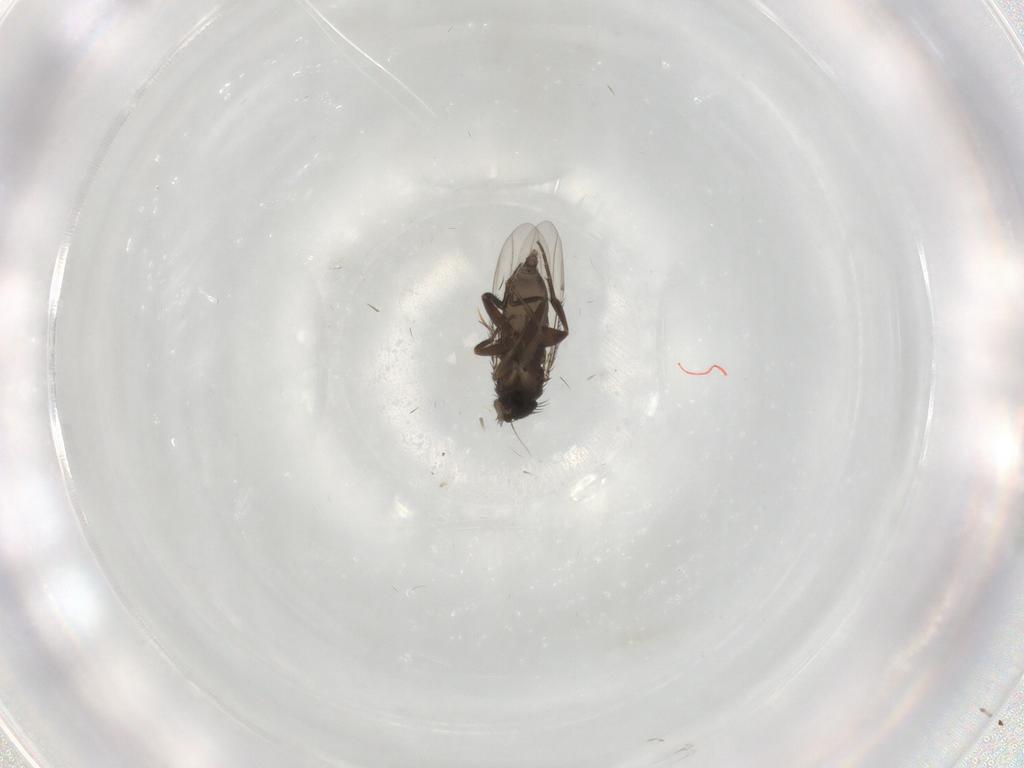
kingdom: Animalia
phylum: Arthropoda
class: Insecta
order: Diptera
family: Phoridae
